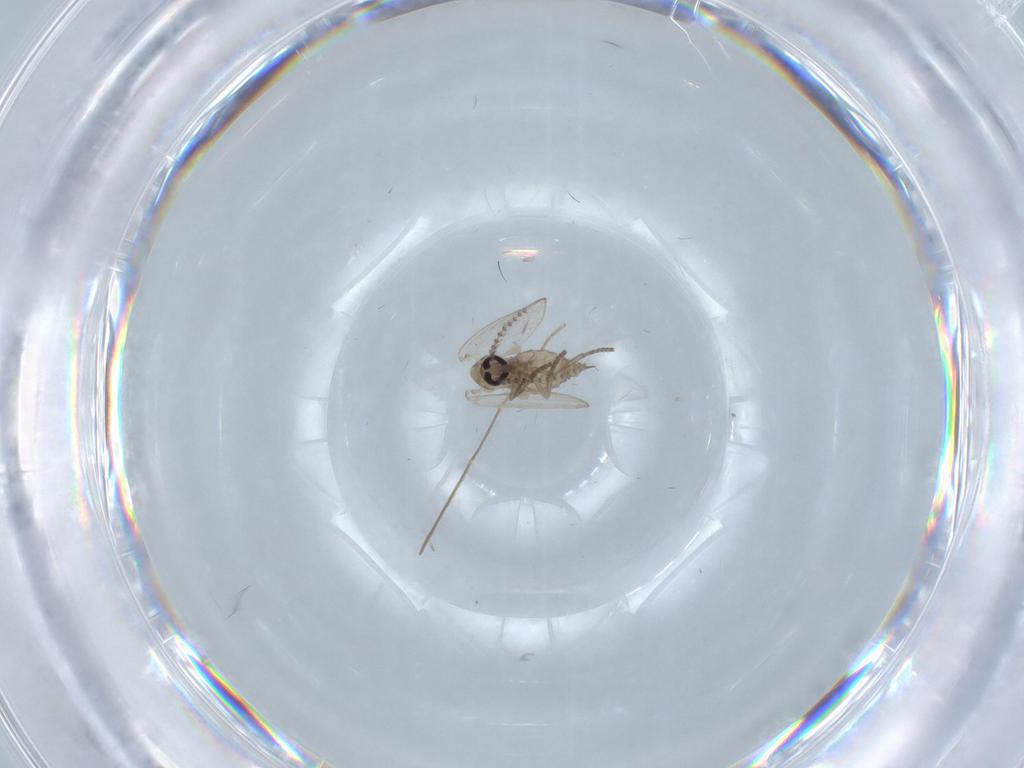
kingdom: Animalia
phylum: Arthropoda
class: Insecta
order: Diptera
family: Psychodidae
